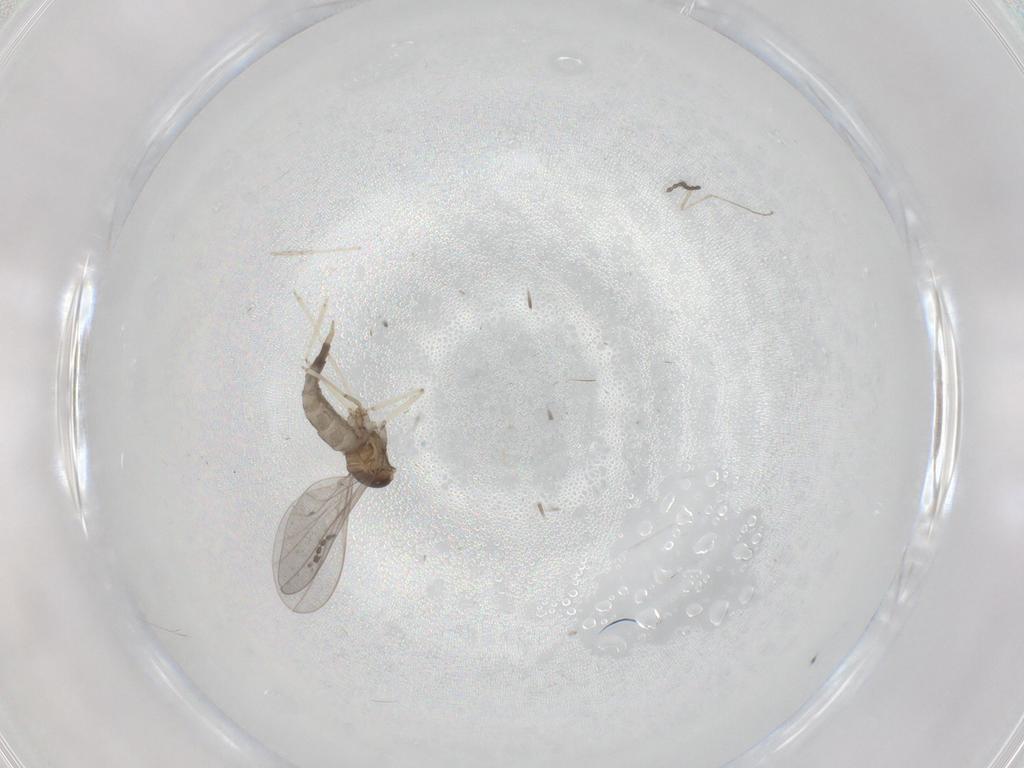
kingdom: Animalia
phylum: Arthropoda
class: Insecta
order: Diptera
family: Cecidomyiidae
